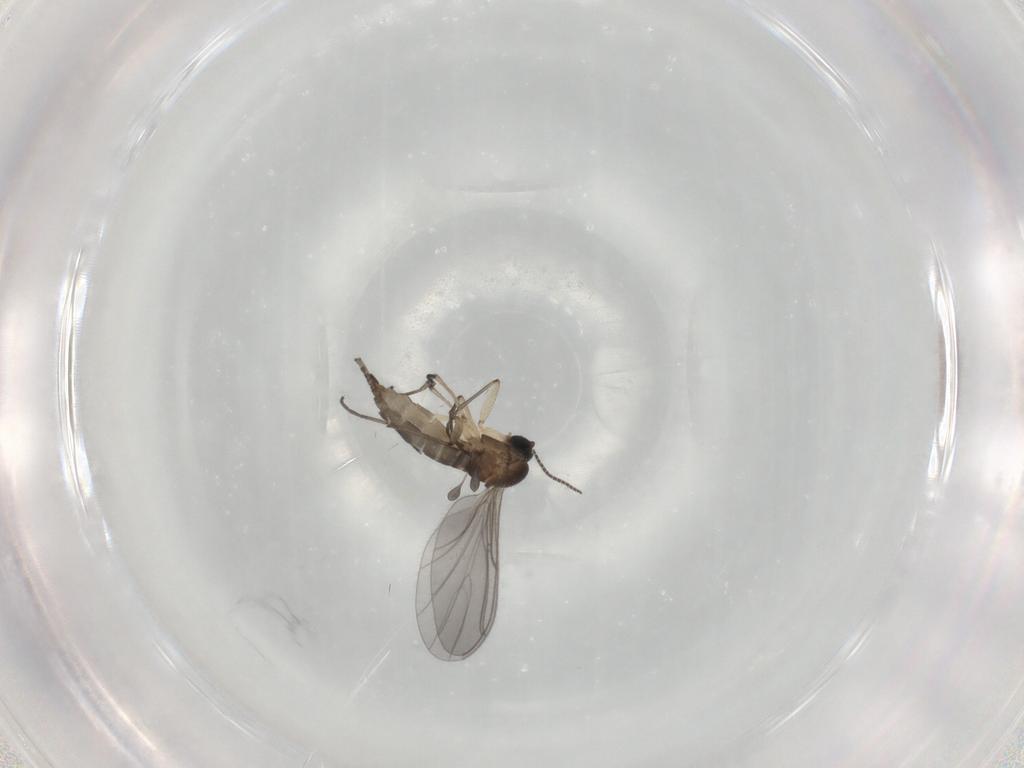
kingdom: Animalia
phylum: Arthropoda
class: Insecta
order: Diptera
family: Sciaridae
